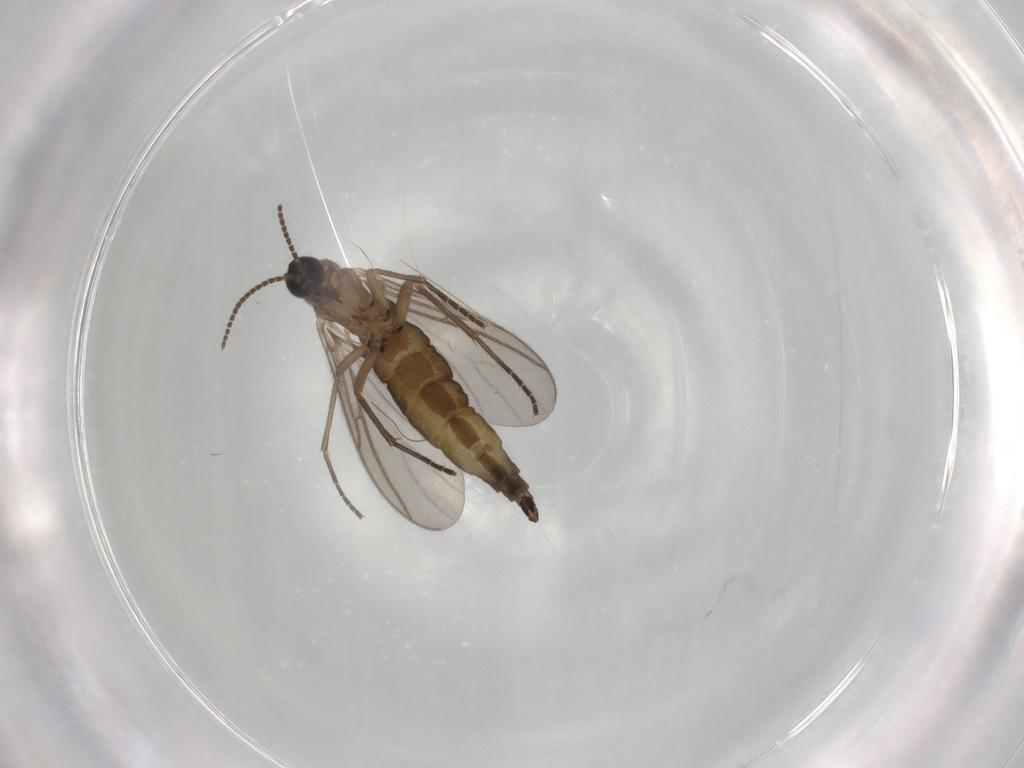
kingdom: Animalia
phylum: Arthropoda
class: Insecta
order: Diptera
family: Sciaridae
